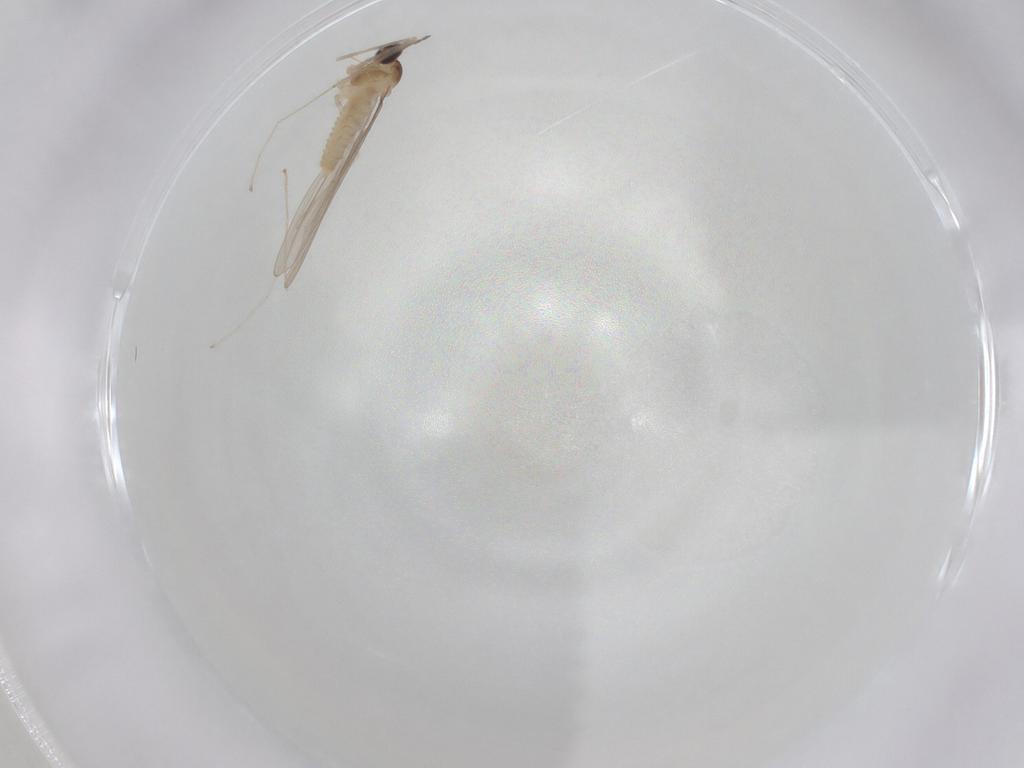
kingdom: Animalia
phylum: Arthropoda
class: Insecta
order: Diptera
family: Cecidomyiidae
